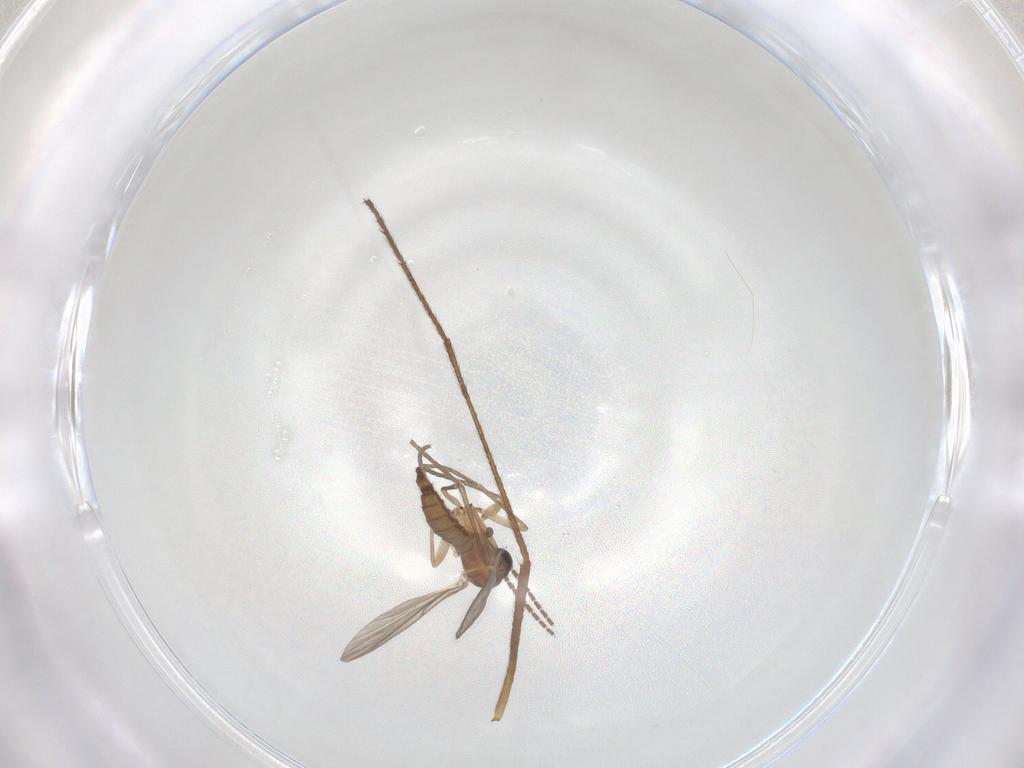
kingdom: Animalia
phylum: Arthropoda
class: Insecta
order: Diptera
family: Sciaridae
